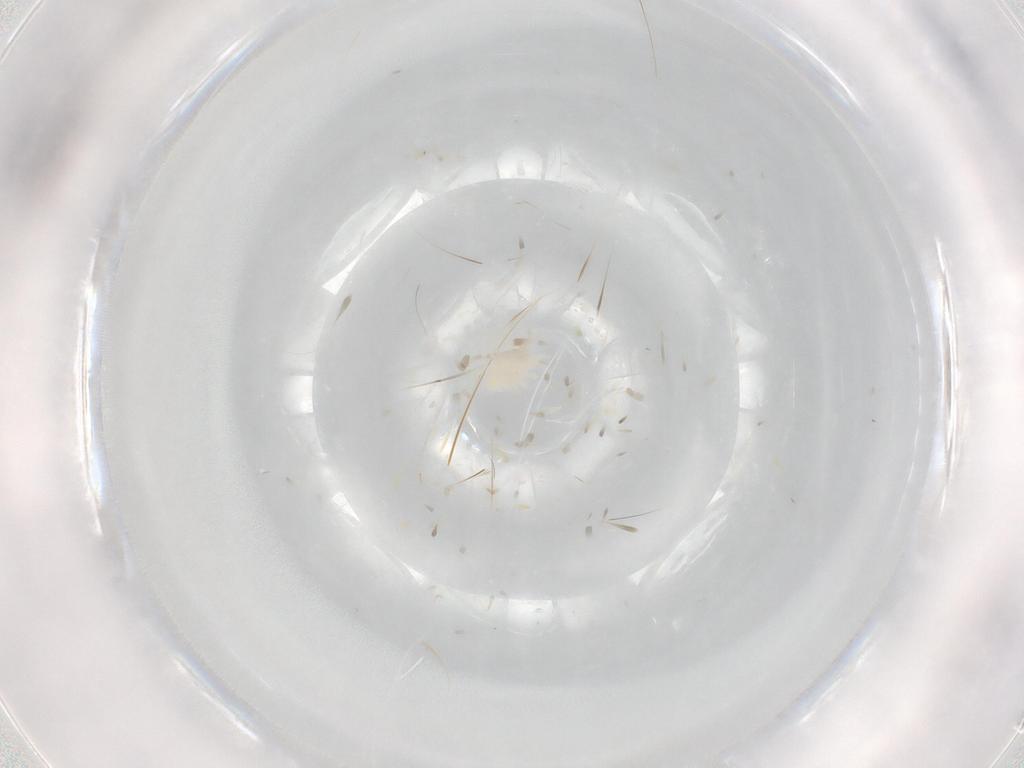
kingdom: Animalia
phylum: Arthropoda
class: Arachnida
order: Mesostigmata
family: Melicharidae
